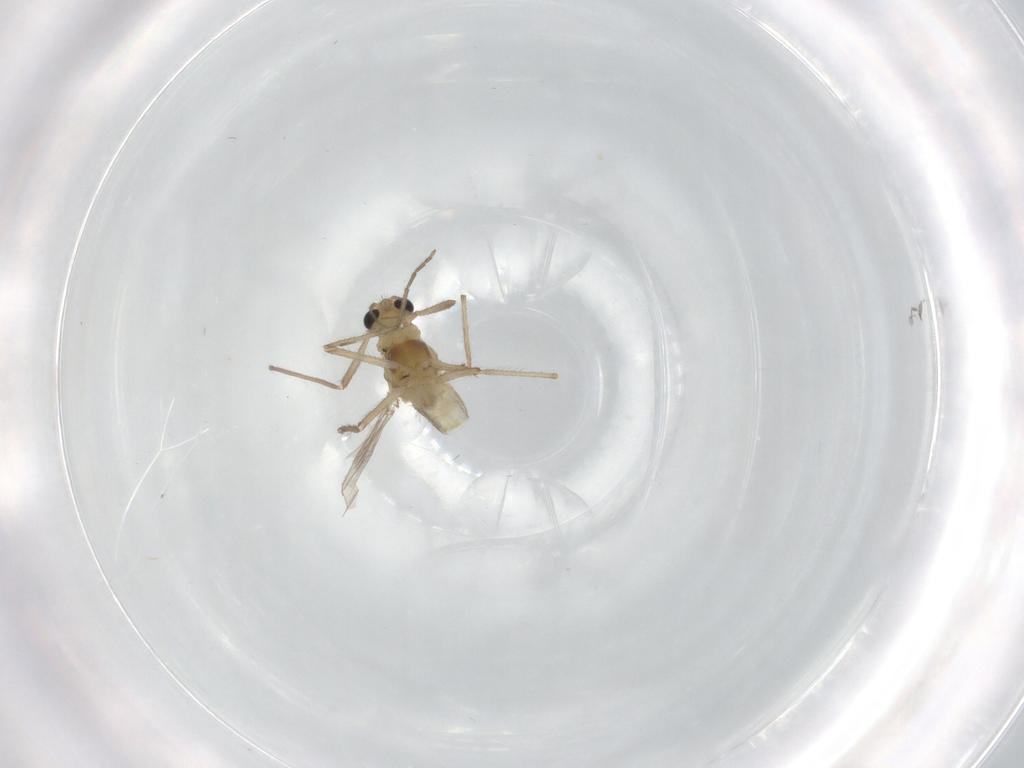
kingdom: Animalia
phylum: Arthropoda
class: Insecta
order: Diptera
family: Chironomidae
